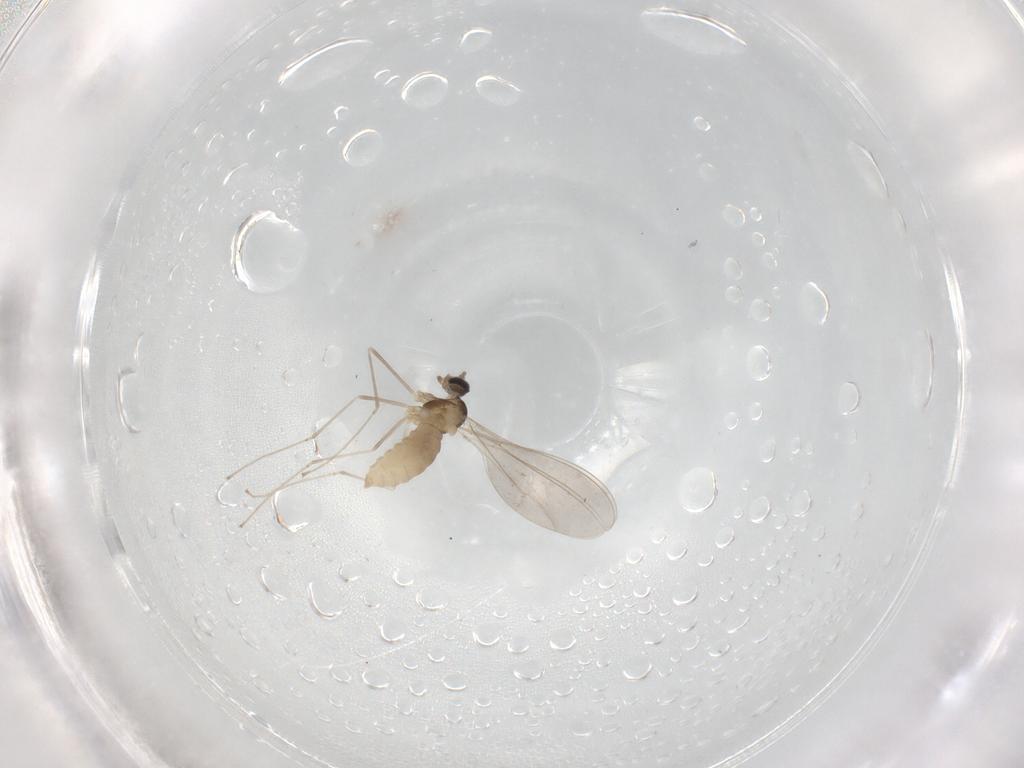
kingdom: Animalia
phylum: Arthropoda
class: Insecta
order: Diptera
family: Cecidomyiidae
